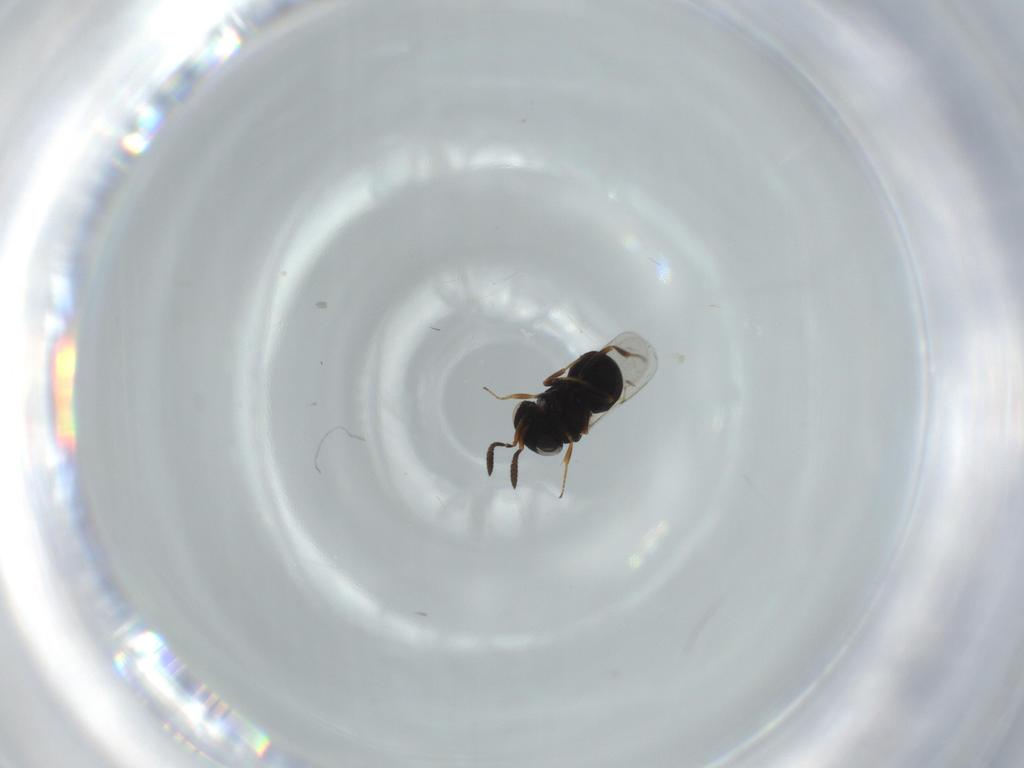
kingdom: Animalia
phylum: Arthropoda
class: Insecta
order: Hymenoptera
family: Scelionidae
